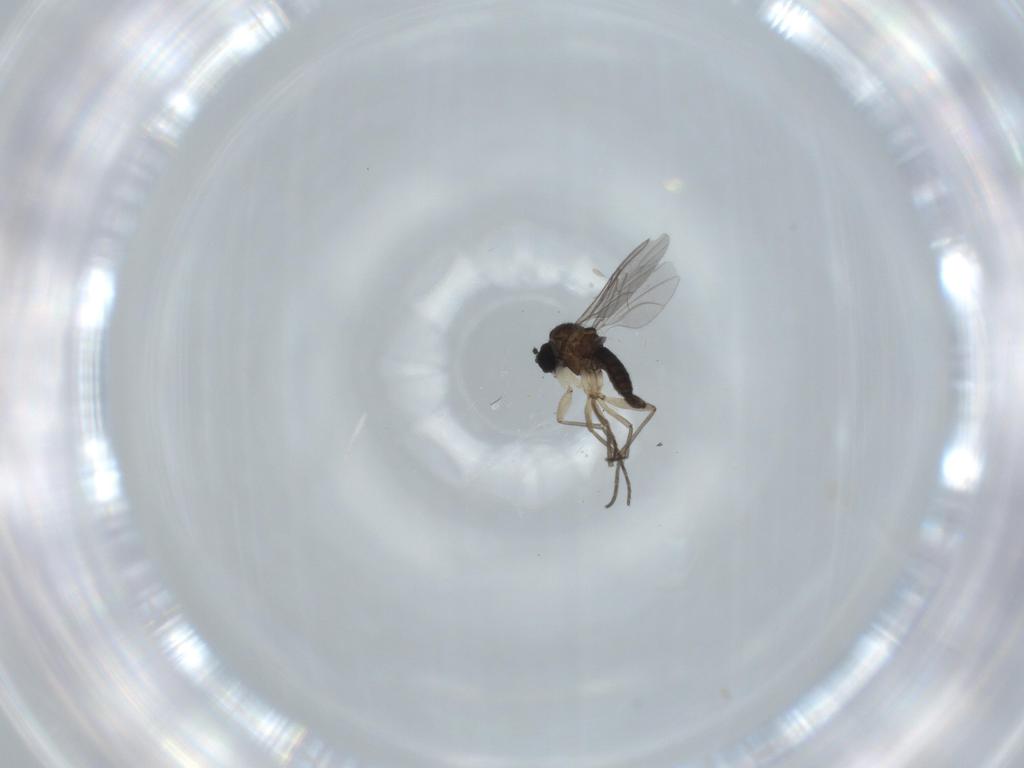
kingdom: Animalia
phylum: Arthropoda
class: Insecta
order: Diptera
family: Sciaridae
